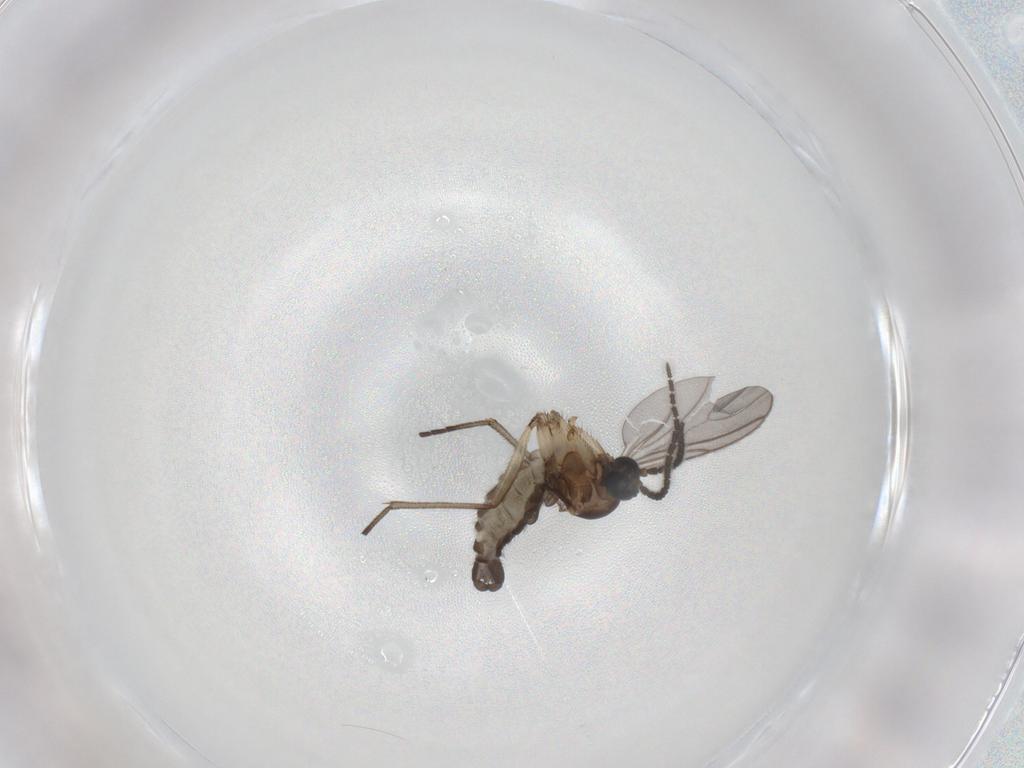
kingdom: Animalia
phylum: Arthropoda
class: Insecta
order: Diptera
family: Sciaridae
